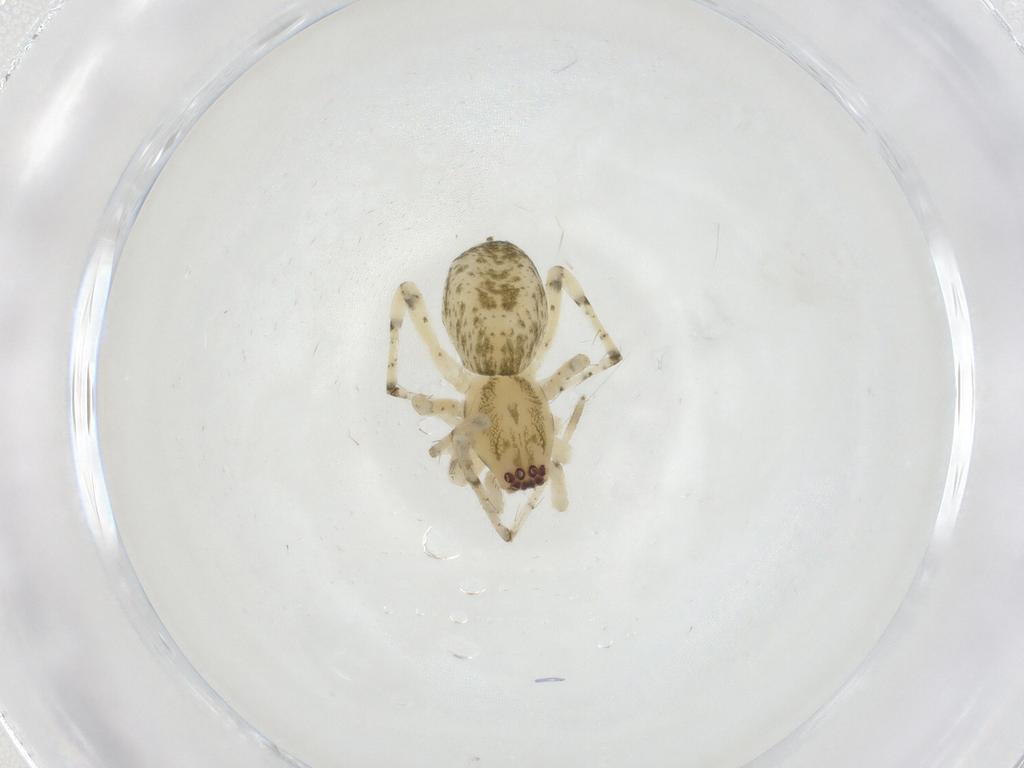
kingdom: Animalia
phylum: Arthropoda
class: Arachnida
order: Araneae
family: Anyphaenidae
